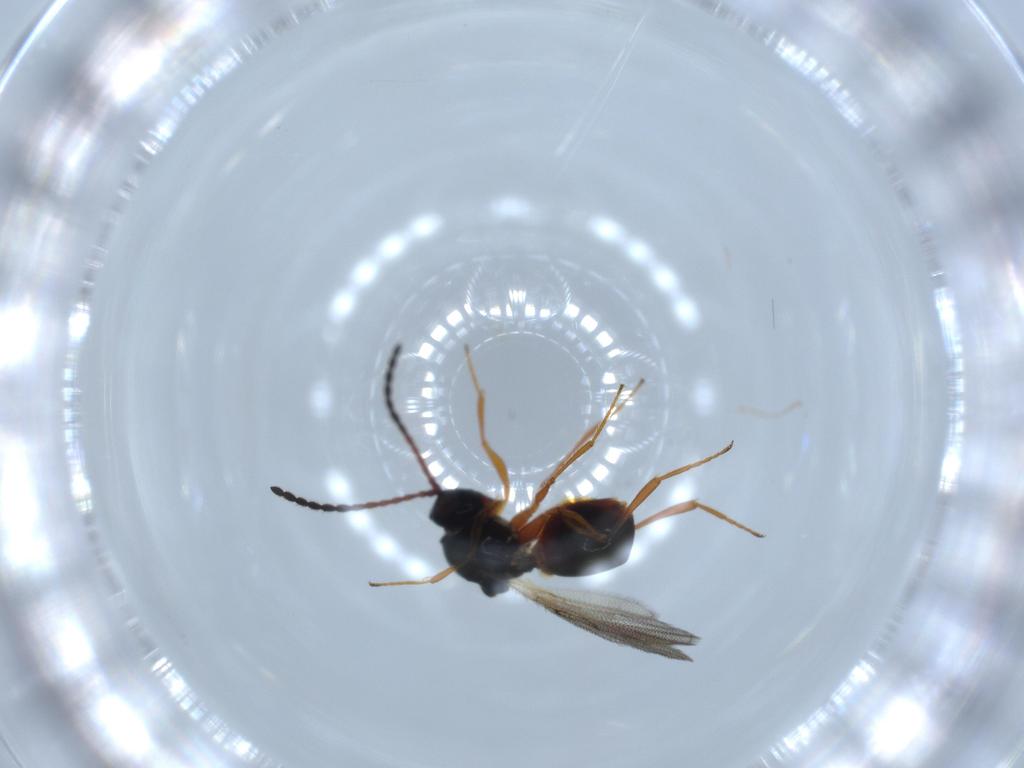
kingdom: Animalia
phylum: Arthropoda
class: Insecta
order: Hymenoptera
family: Figitidae
